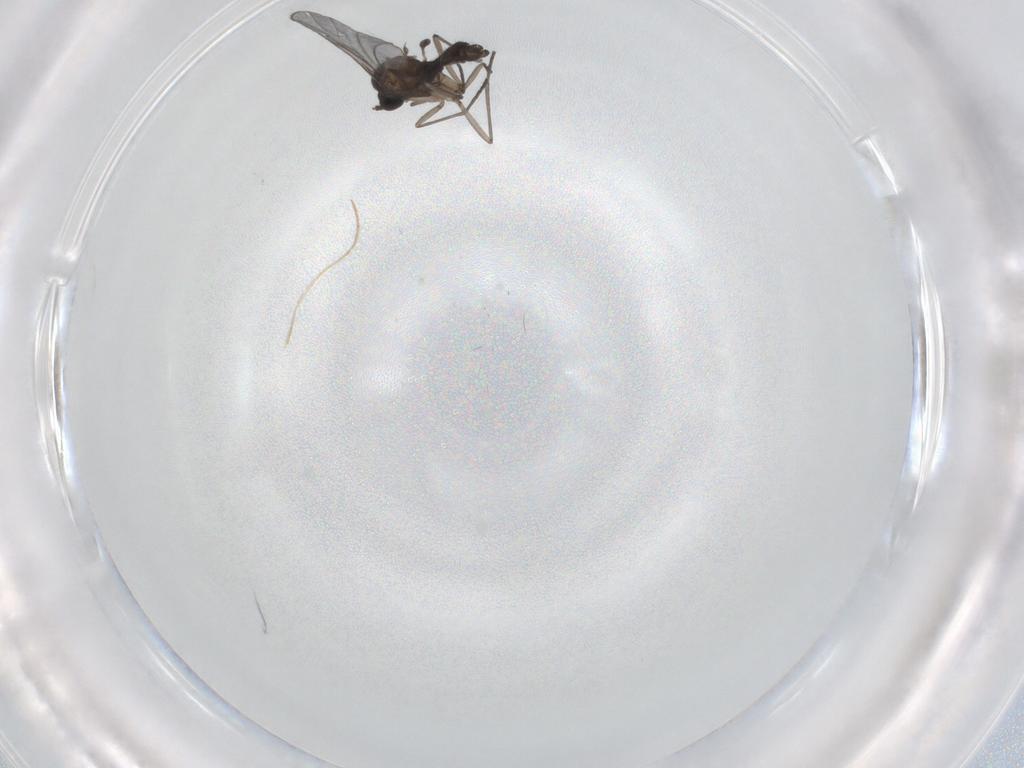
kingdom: Animalia
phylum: Arthropoda
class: Insecta
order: Diptera
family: Sciaridae
